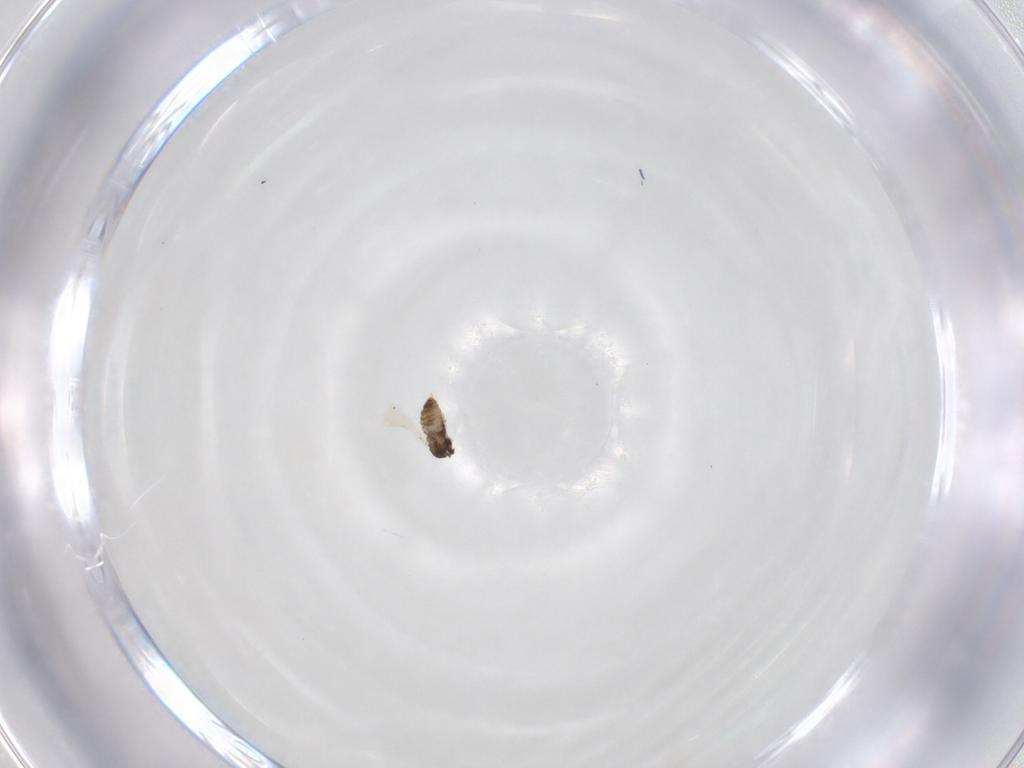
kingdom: Animalia
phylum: Arthropoda
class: Insecta
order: Diptera
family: Cecidomyiidae
